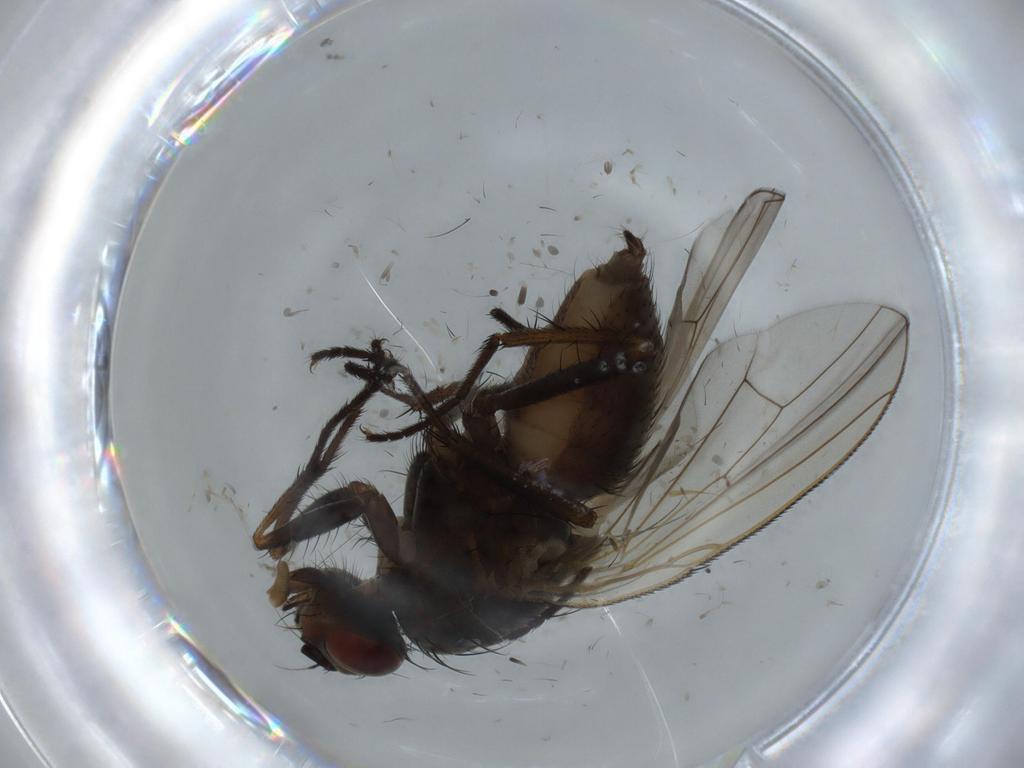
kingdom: Animalia
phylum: Arthropoda
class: Insecta
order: Diptera
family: Anthomyiidae
